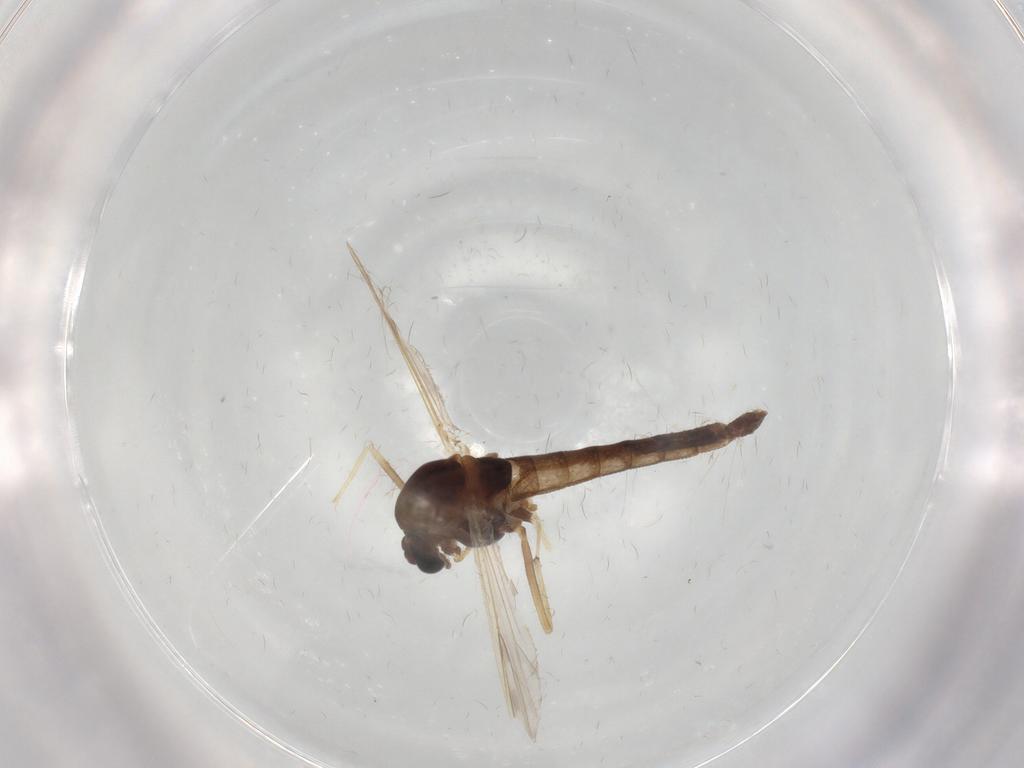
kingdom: Animalia
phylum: Arthropoda
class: Insecta
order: Diptera
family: Chironomidae
